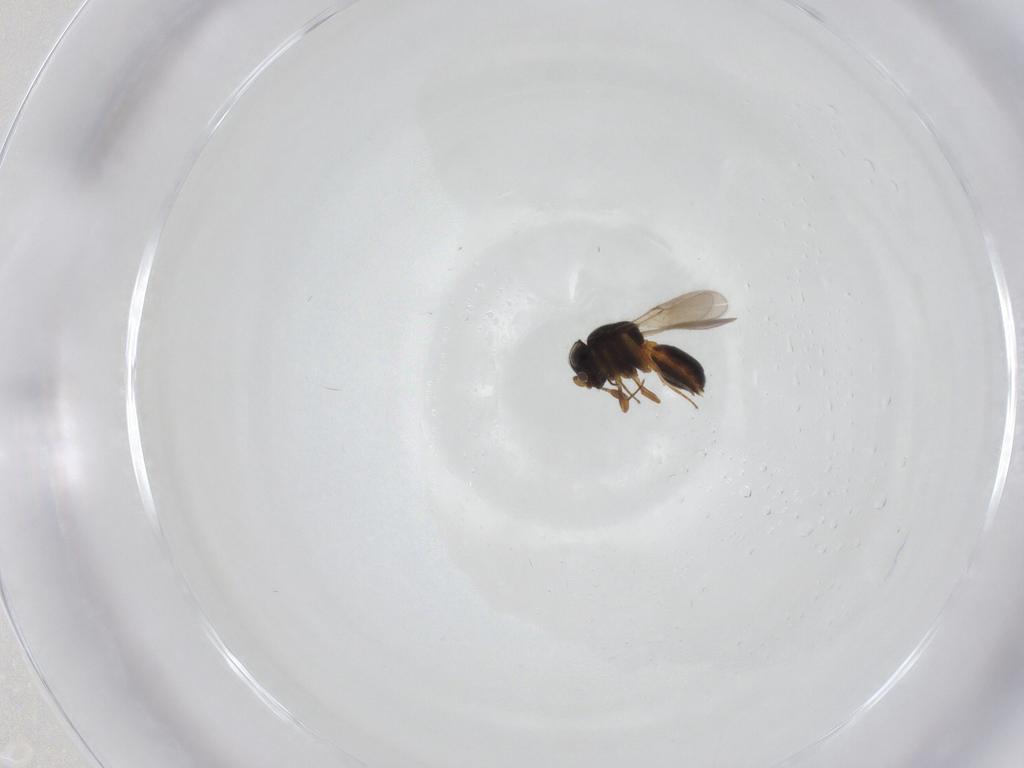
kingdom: Animalia
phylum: Arthropoda
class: Insecta
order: Hymenoptera
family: Scelionidae
